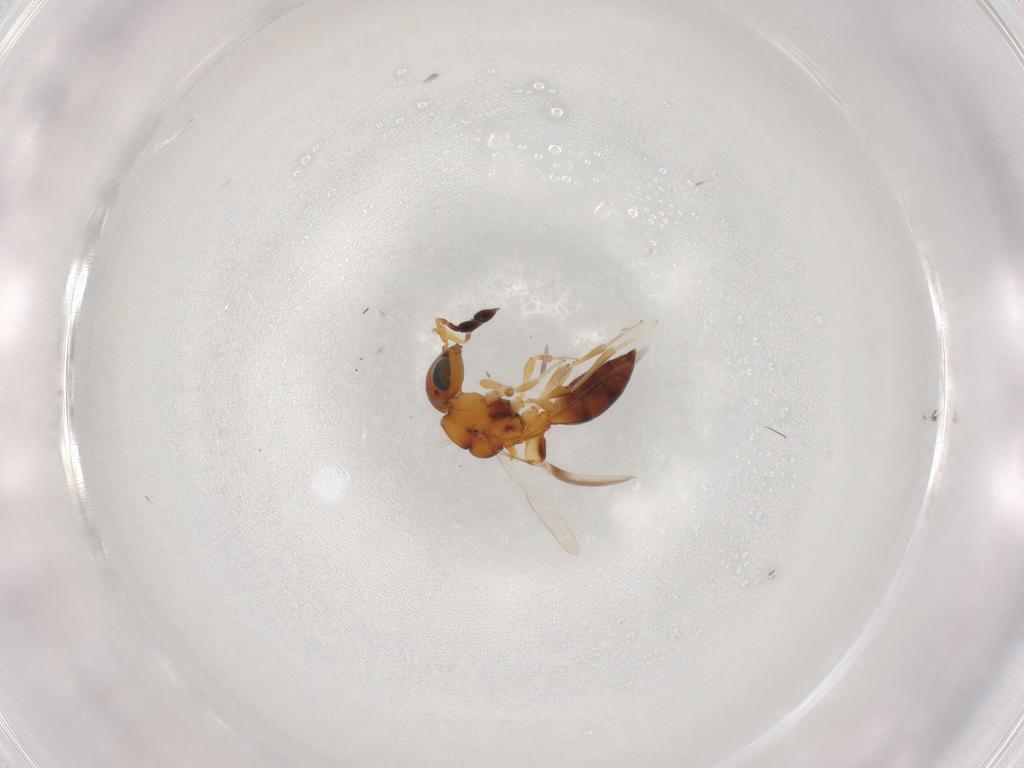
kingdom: Animalia
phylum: Arthropoda
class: Insecta
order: Hymenoptera
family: Scelionidae
